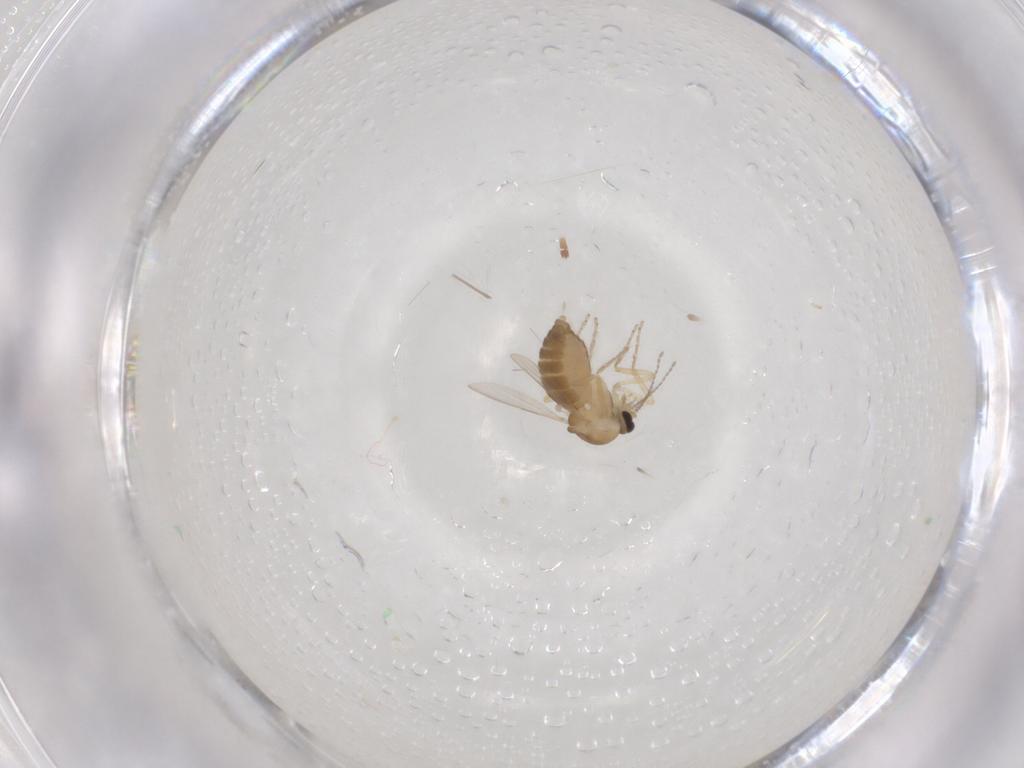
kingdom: Animalia
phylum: Arthropoda
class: Insecta
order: Diptera
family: Ceratopogonidae
